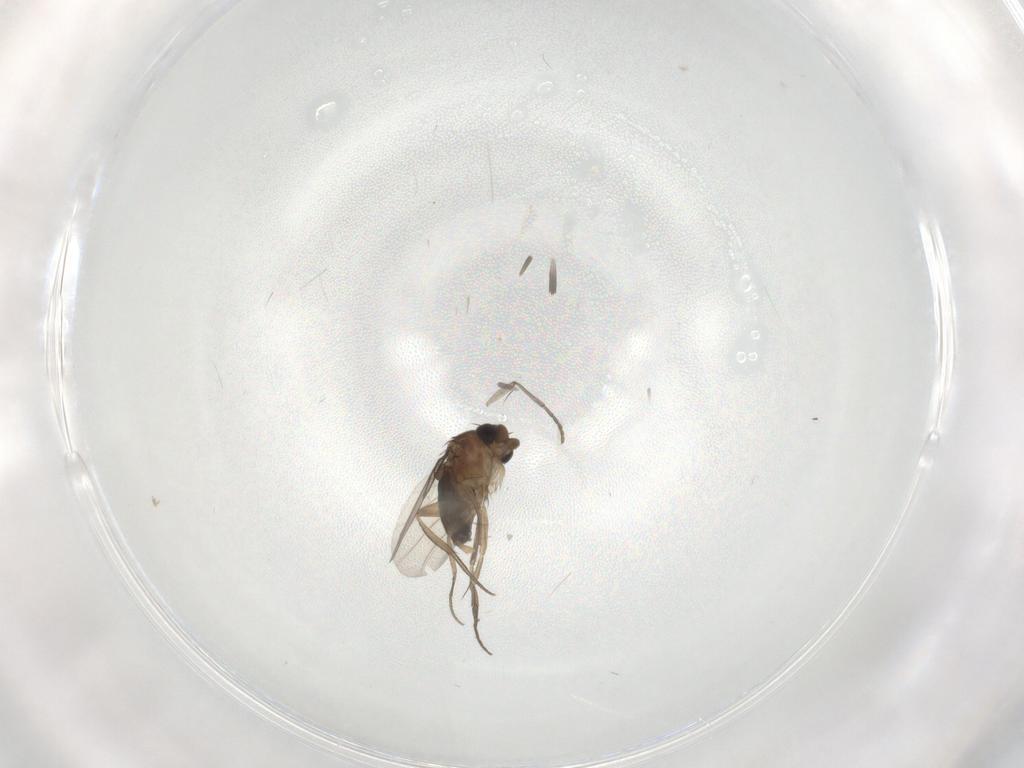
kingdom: Animalia
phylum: Arthropoda
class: Insecta
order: Diptera
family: Phoridae
